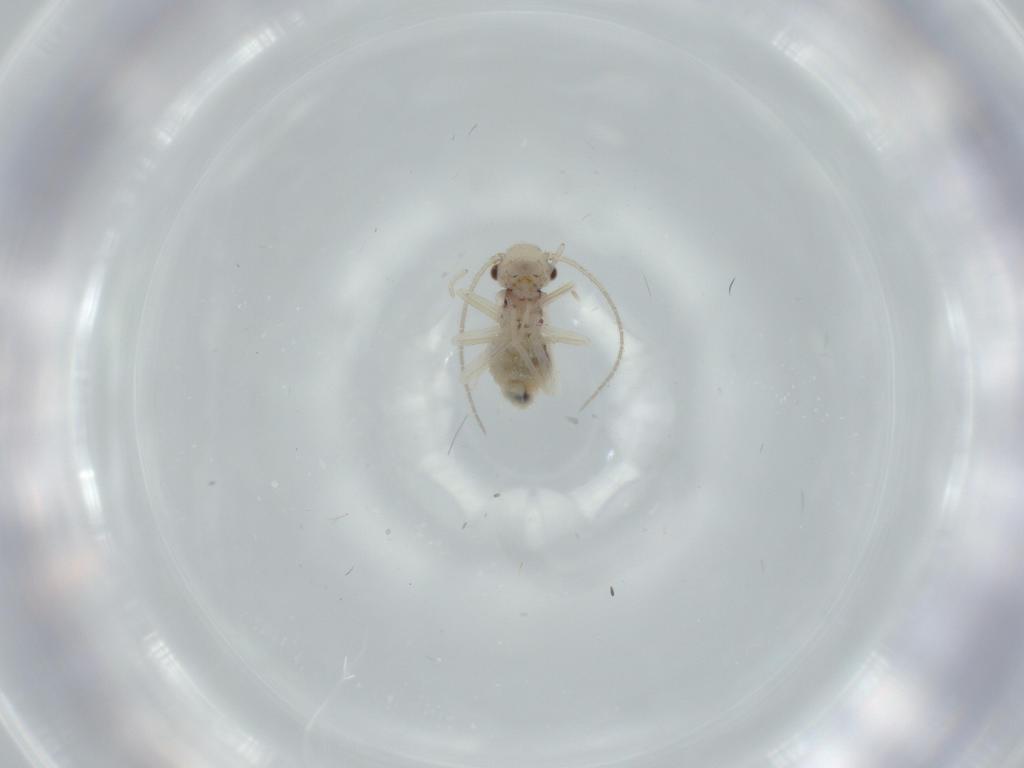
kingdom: Animalia
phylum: Arthropoda
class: Insecta
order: Psocodea
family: Caeciliusidae
